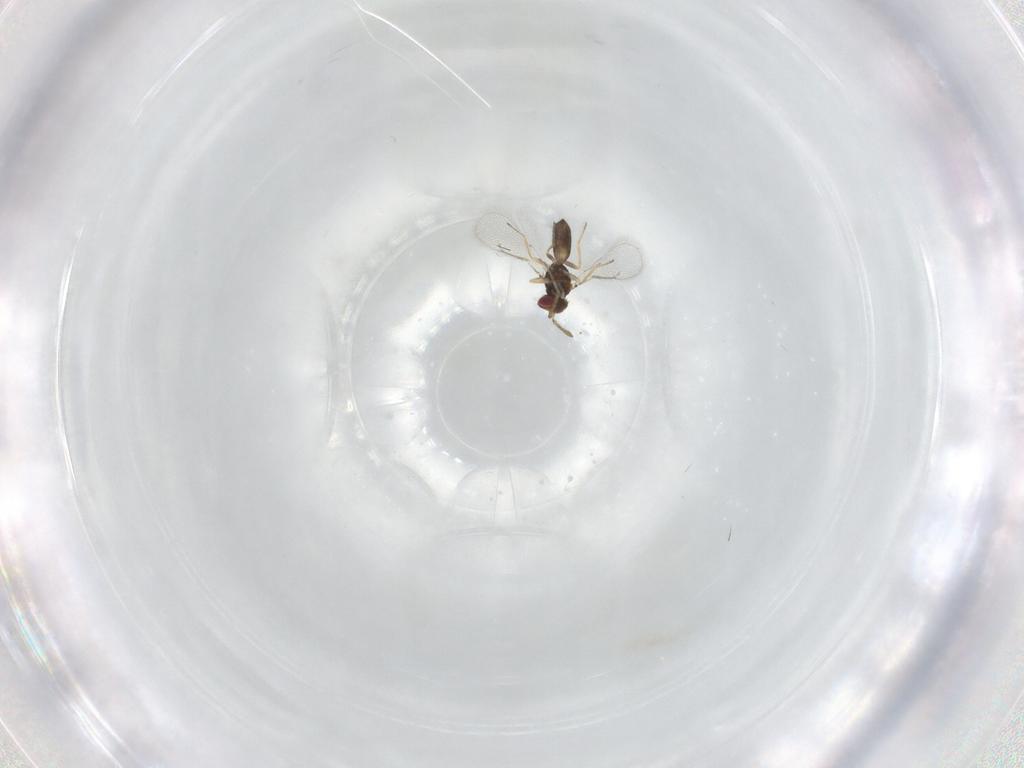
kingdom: Animalia
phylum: Arthropoda
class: Insecta
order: Hymenoptera
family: Eulophidae
